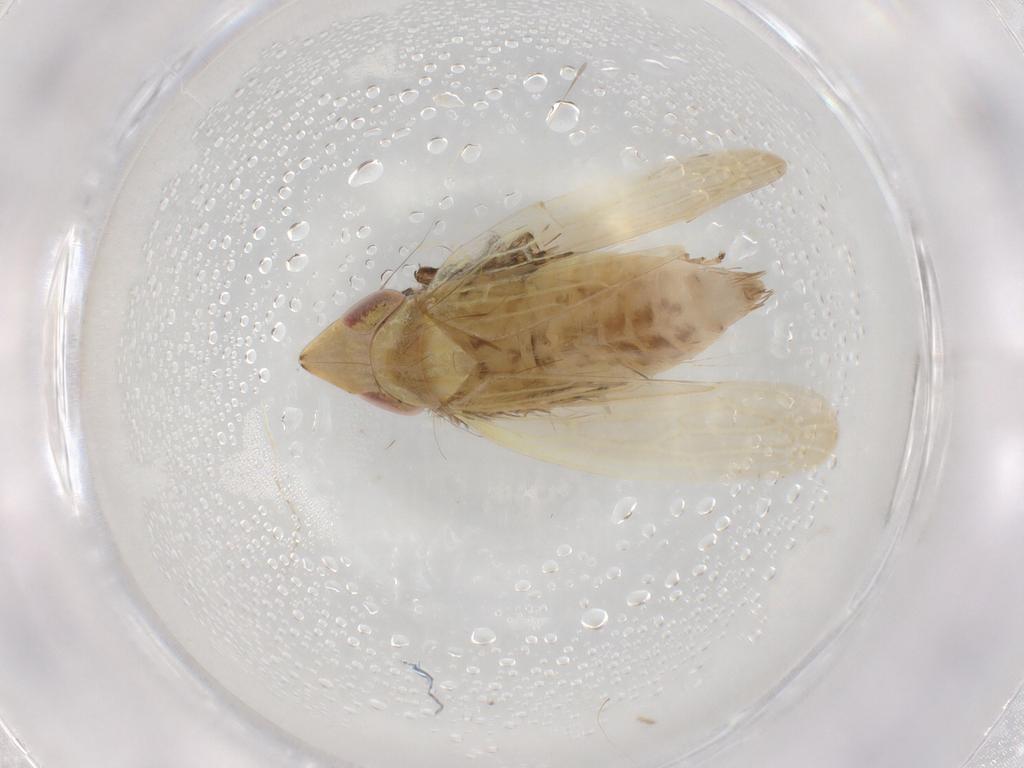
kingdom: Animalia
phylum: Arthropoda
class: Insecta
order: Hemiptera
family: Cicadellidae
